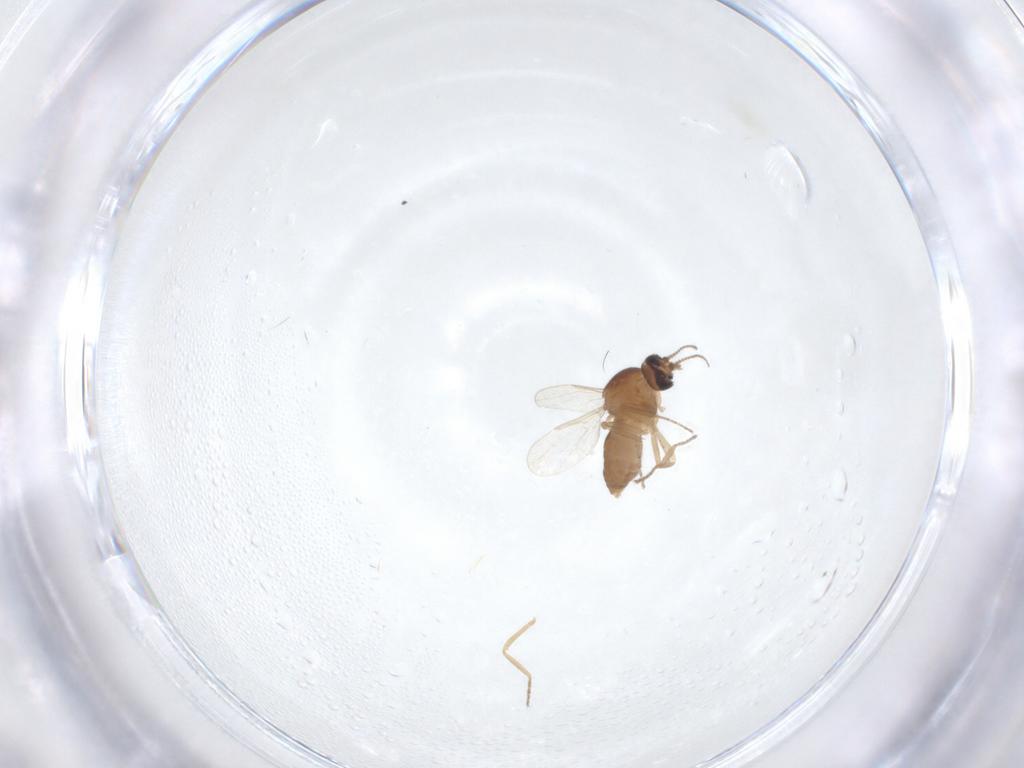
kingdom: Animalia
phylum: Arthropoda
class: Insecta
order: Diptera
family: Ceratopogonidae
